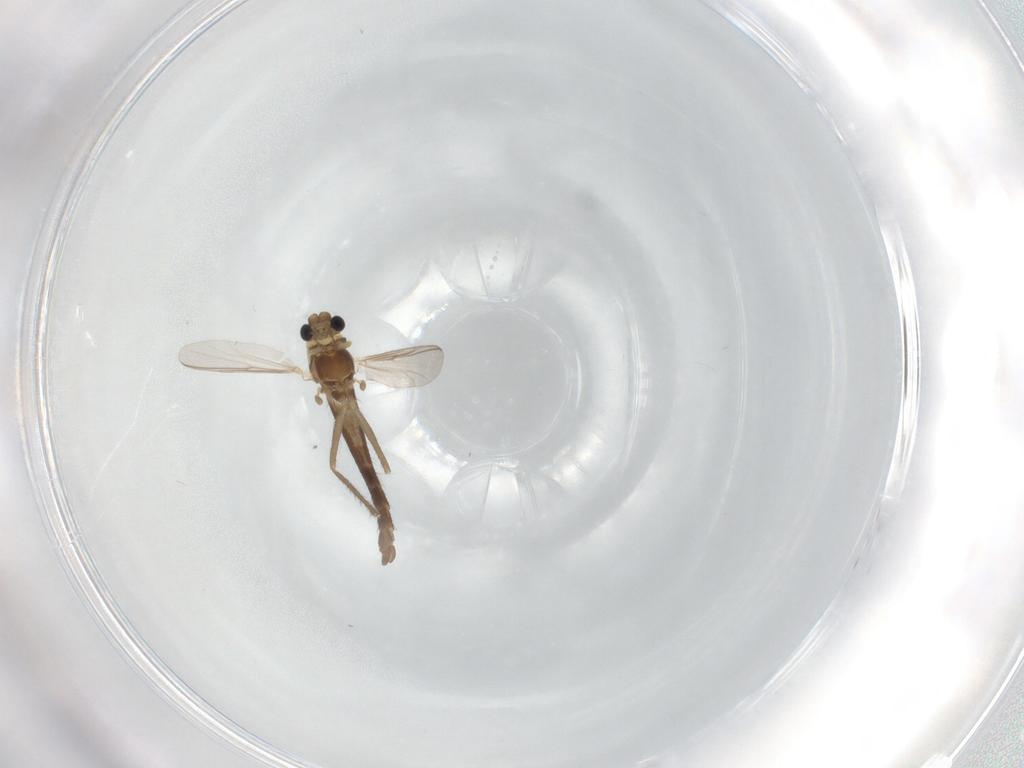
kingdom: Animalia
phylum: Arthropoda
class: Insecta
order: Diptera
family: Chironomidae
